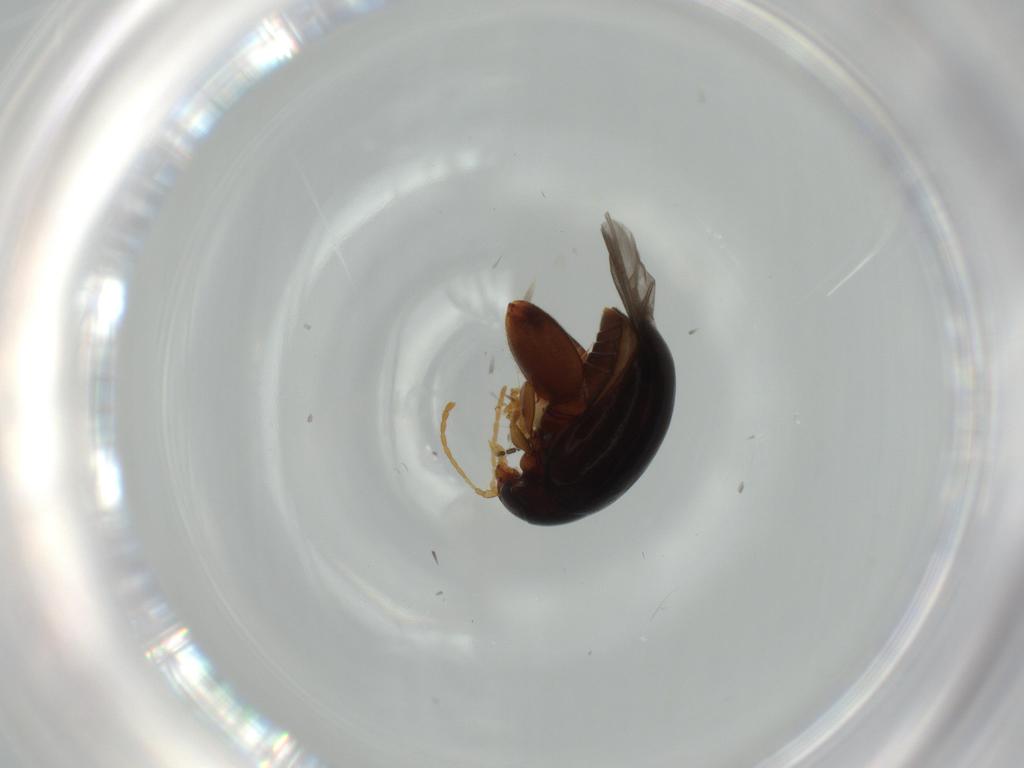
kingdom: Animalia
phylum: Arthropoda
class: Insecta
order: Coleoptera
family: Chrysomelidae
